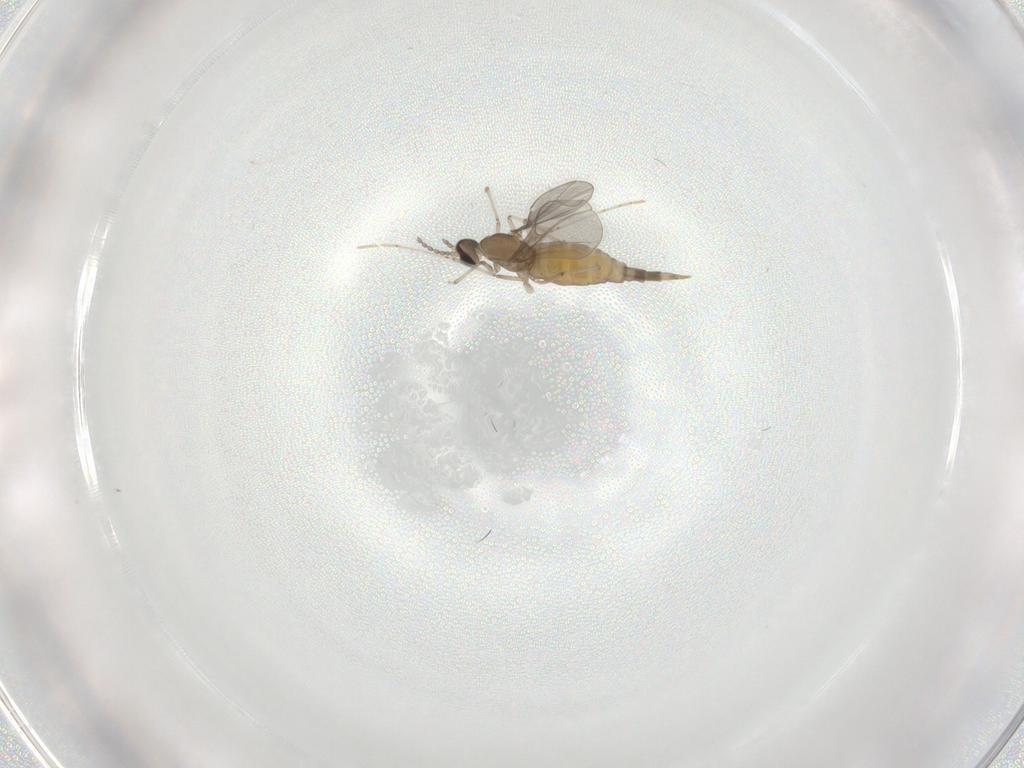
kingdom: Animalia
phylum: Arthropoda
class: Insecta
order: Diptera
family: Cecidomyiidae
